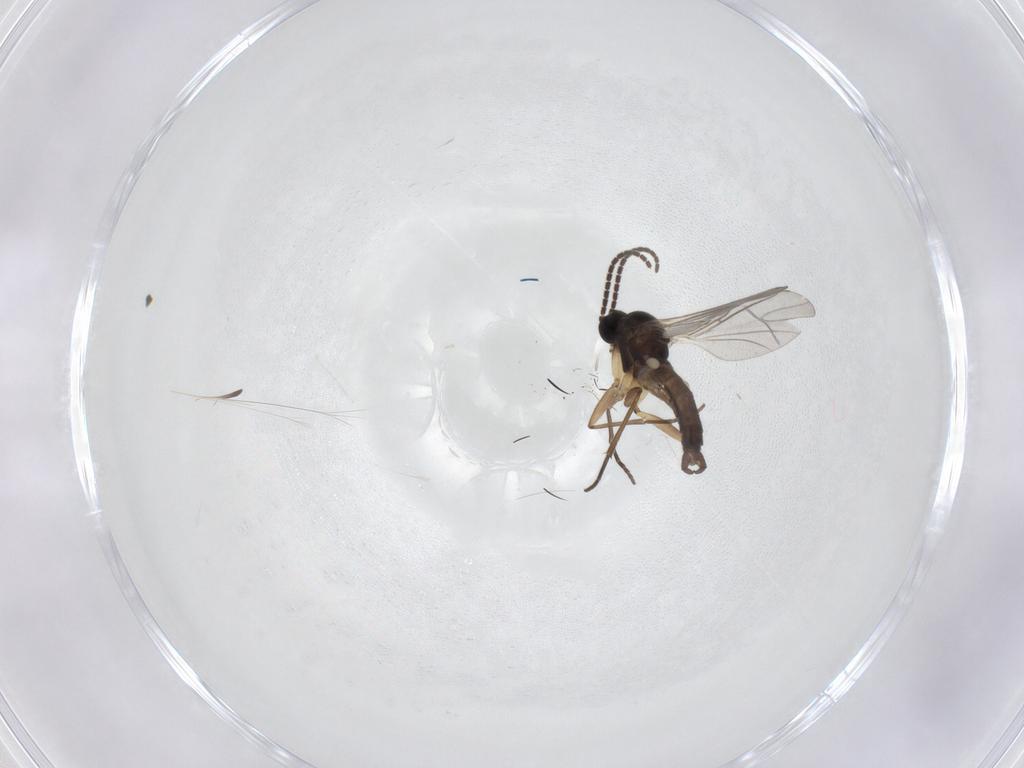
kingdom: Animalia
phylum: Arthropoda
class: Insecta
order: Diptera
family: Sciaridae
